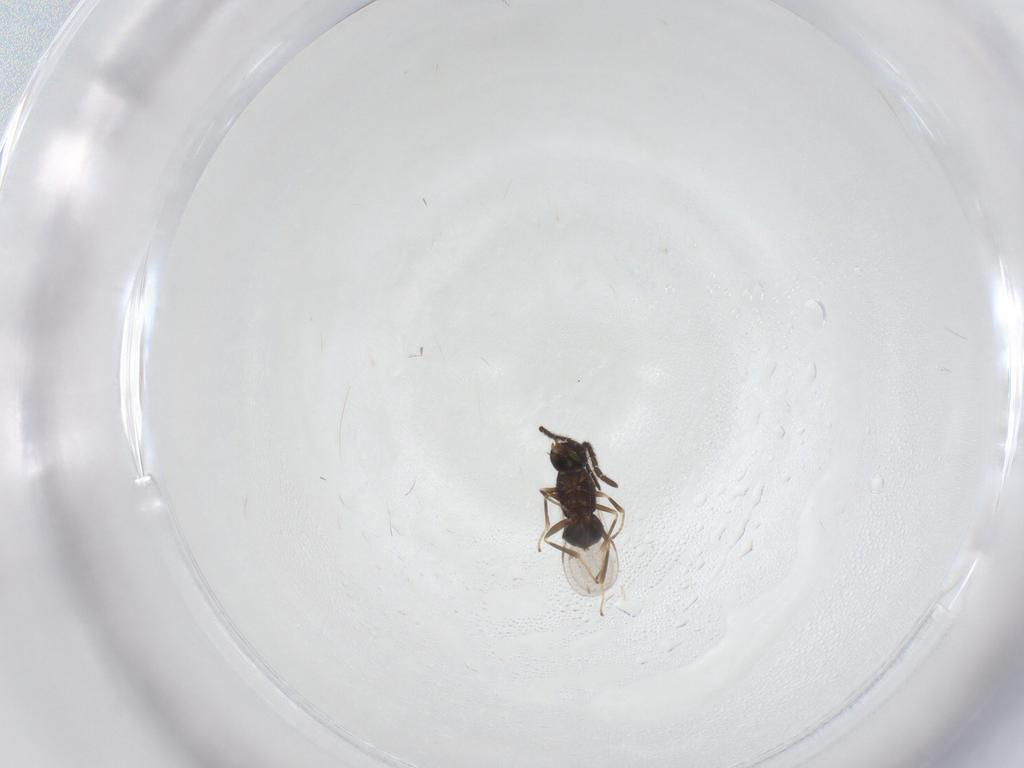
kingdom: Animalia
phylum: Arthropoda
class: Insecta
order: Hymenoptera
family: Encyrtidae
